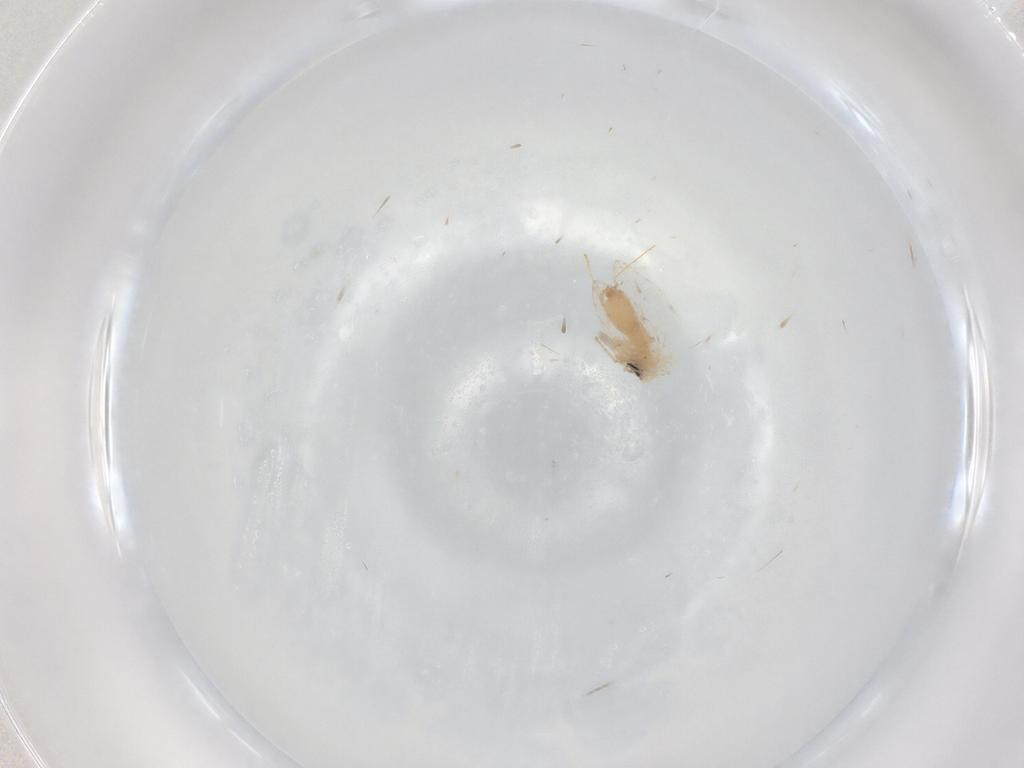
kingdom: Animalia
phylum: Arthropoda
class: Insecta
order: Diptera
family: Psychodidae
